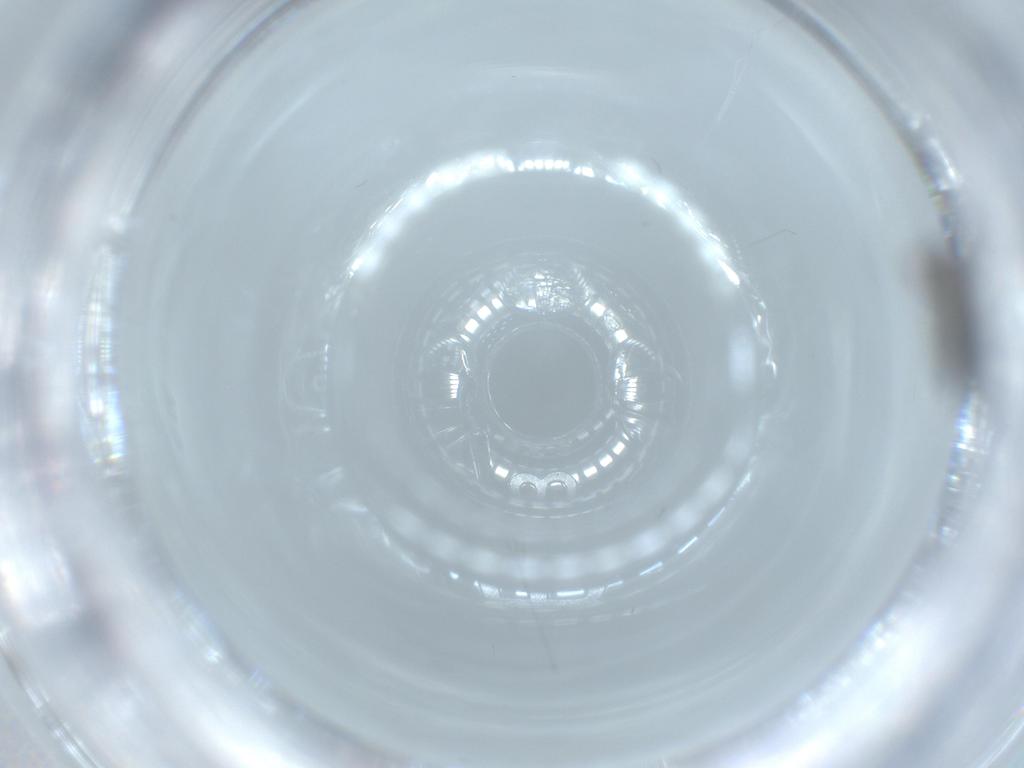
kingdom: Animalia
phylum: Arthropoda
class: Insecta
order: Diptera
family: Sciaridae
